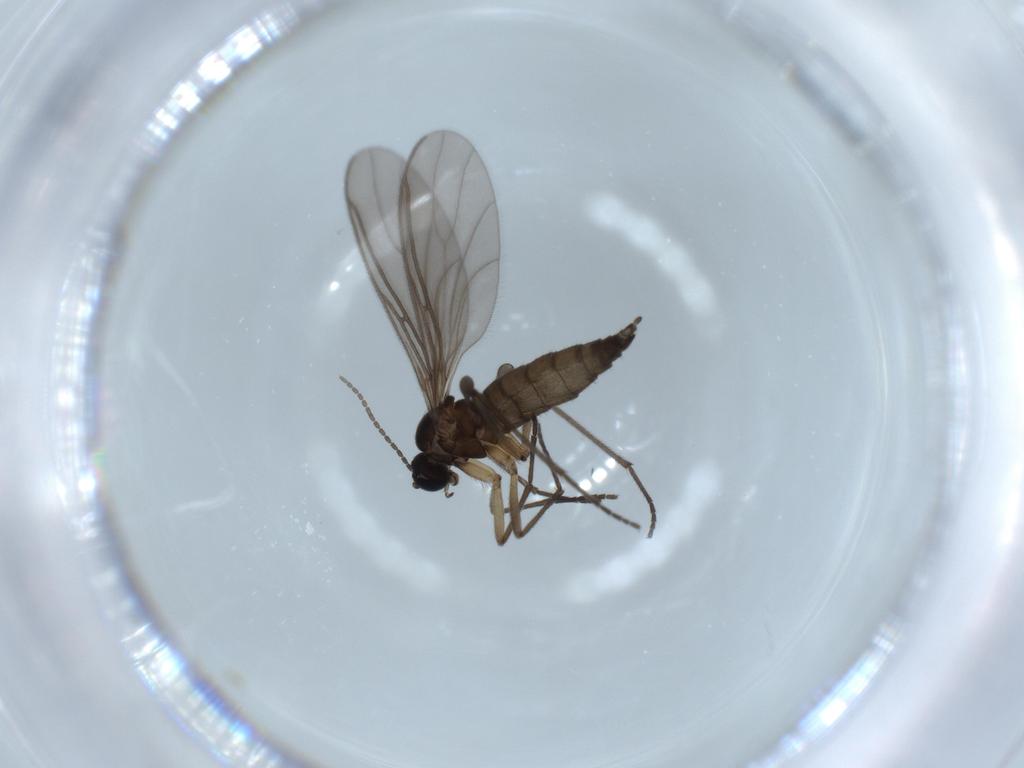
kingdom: Animalia
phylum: Arthropoda
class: Insecta
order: Diptera
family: Sciaridae
